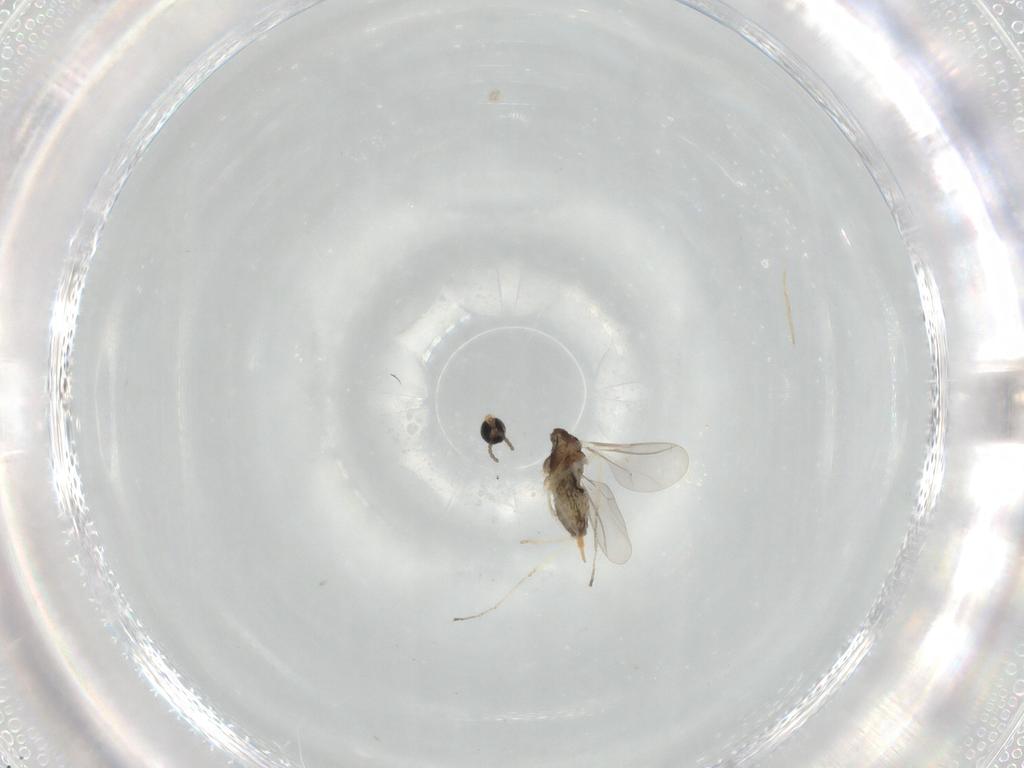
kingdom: Animalia
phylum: Arthropoda
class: Insecta
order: Diptera
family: Cecidomyiidae
